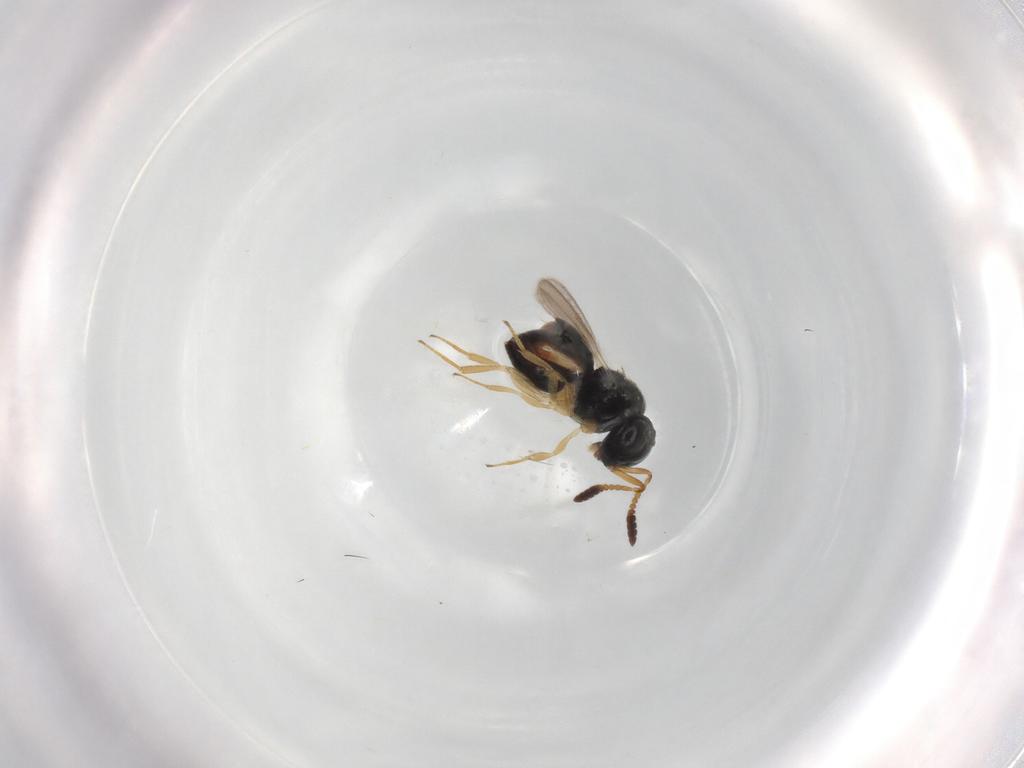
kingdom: Animalia
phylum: Arthropoda
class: Insecta
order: Hymenoptera
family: Scelionidae
